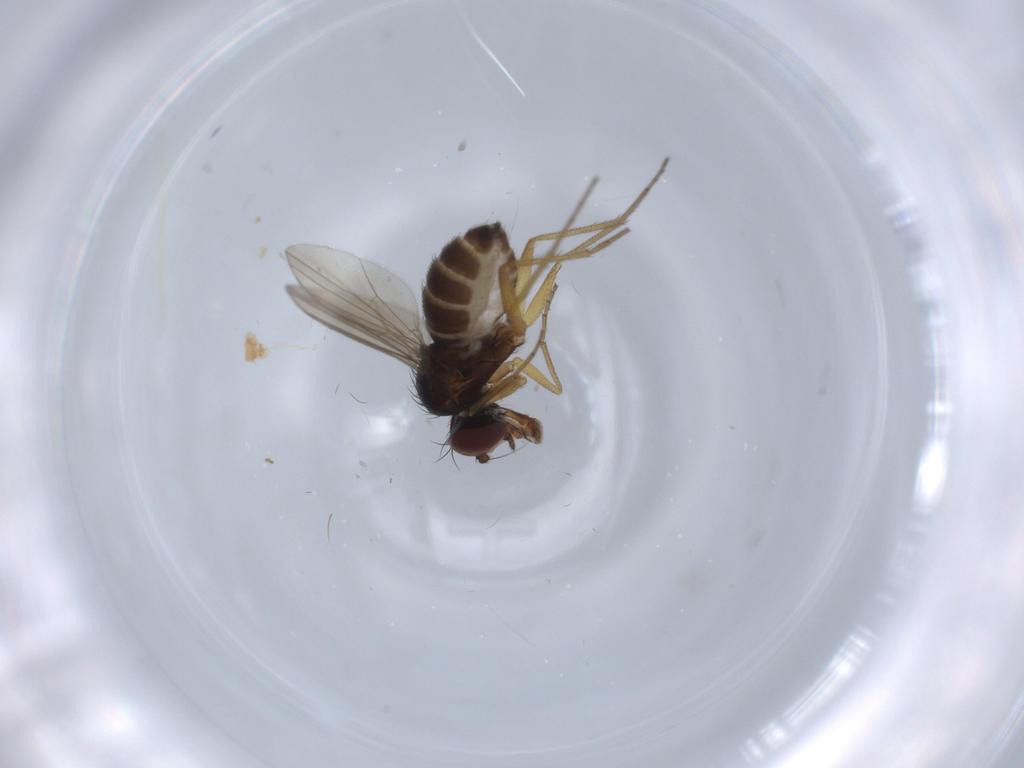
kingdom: Animalia
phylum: Arthropoda
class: Insecta
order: Diptera
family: Dolichopodidae
